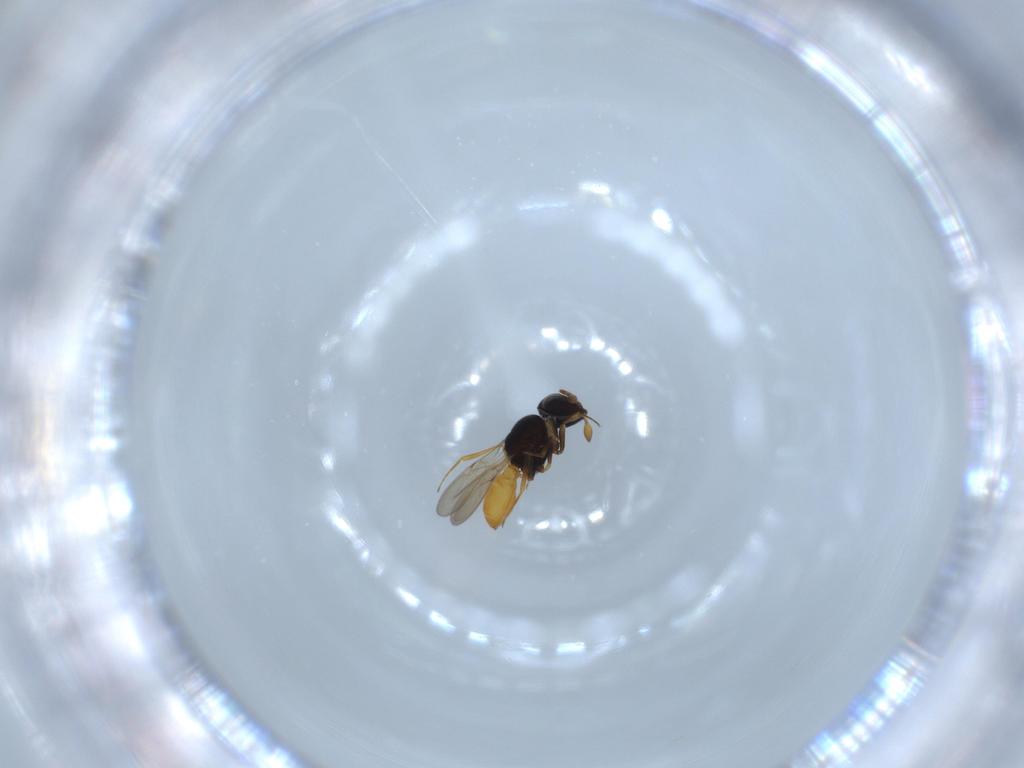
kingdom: Animalia
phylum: Arthropoda
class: Insecta
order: Hymenoptera
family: Scelionidae
